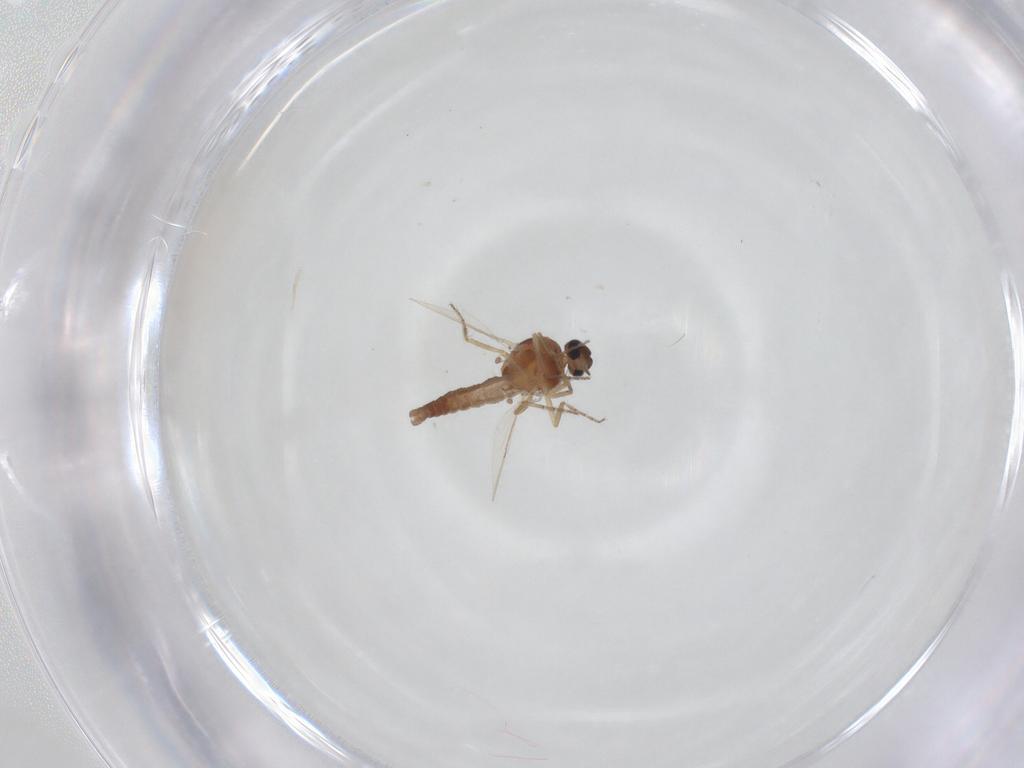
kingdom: Animalia
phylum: Arthropoda
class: Insecta
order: Diptera
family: Ceratopogonidae
